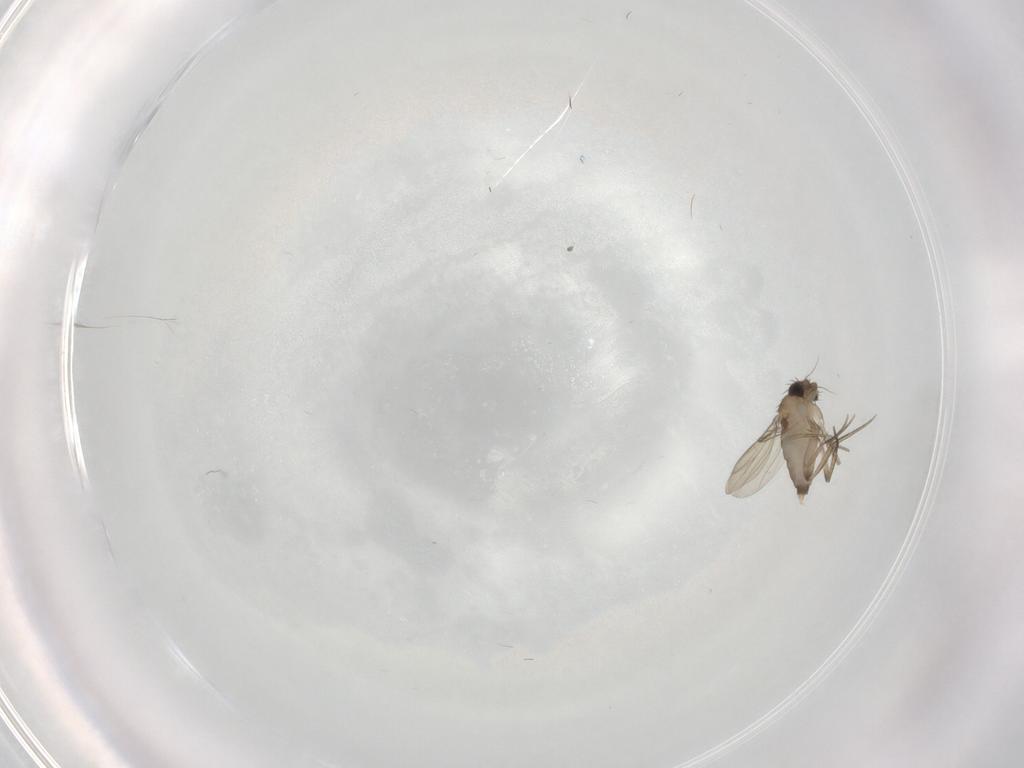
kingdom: Animalia
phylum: Arthropoda
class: Insecta
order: Diptera
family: Phoridae
